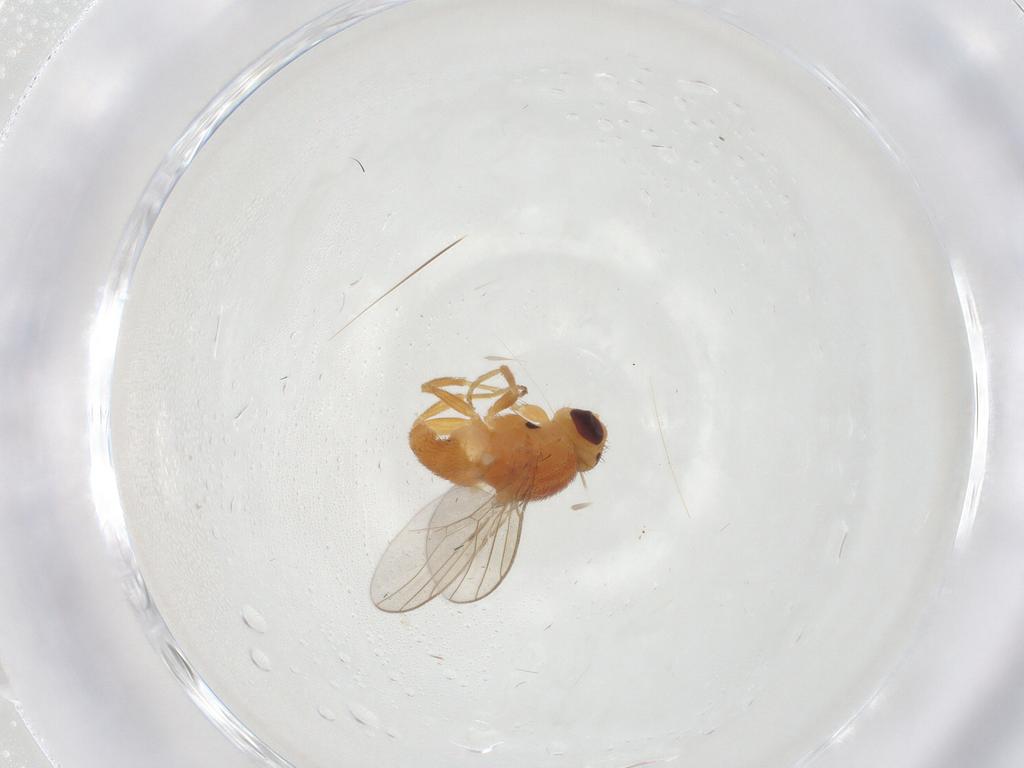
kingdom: Animalia
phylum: Arthropoda
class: Insecta
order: Diptera
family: Chloropidae
